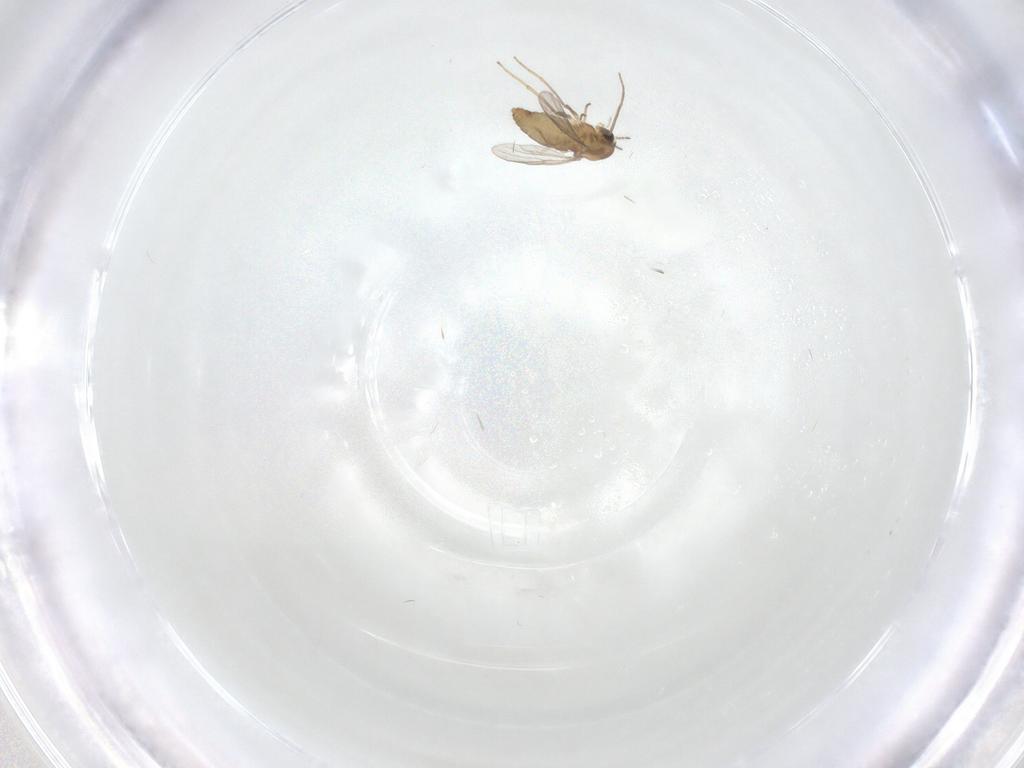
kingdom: Animalia
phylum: Arthropoda
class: Insecta
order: Diptera
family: Chironomidae
